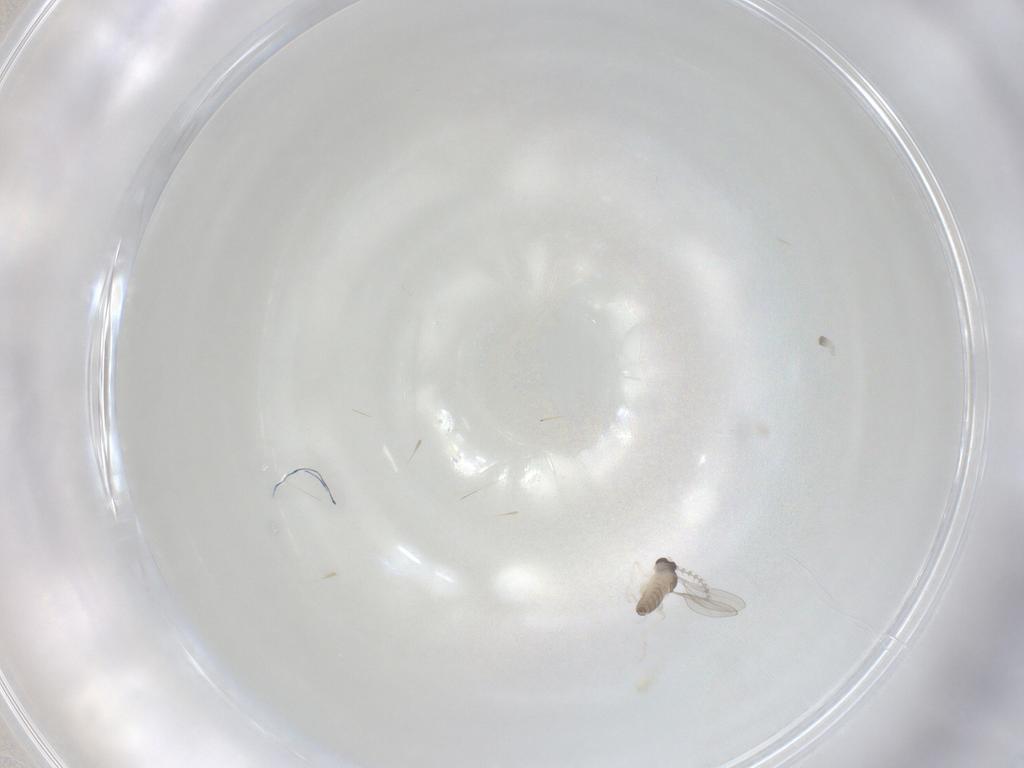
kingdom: Animalia
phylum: Arthropoda
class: Insecta
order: Diptera
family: Cecidomyiidae
